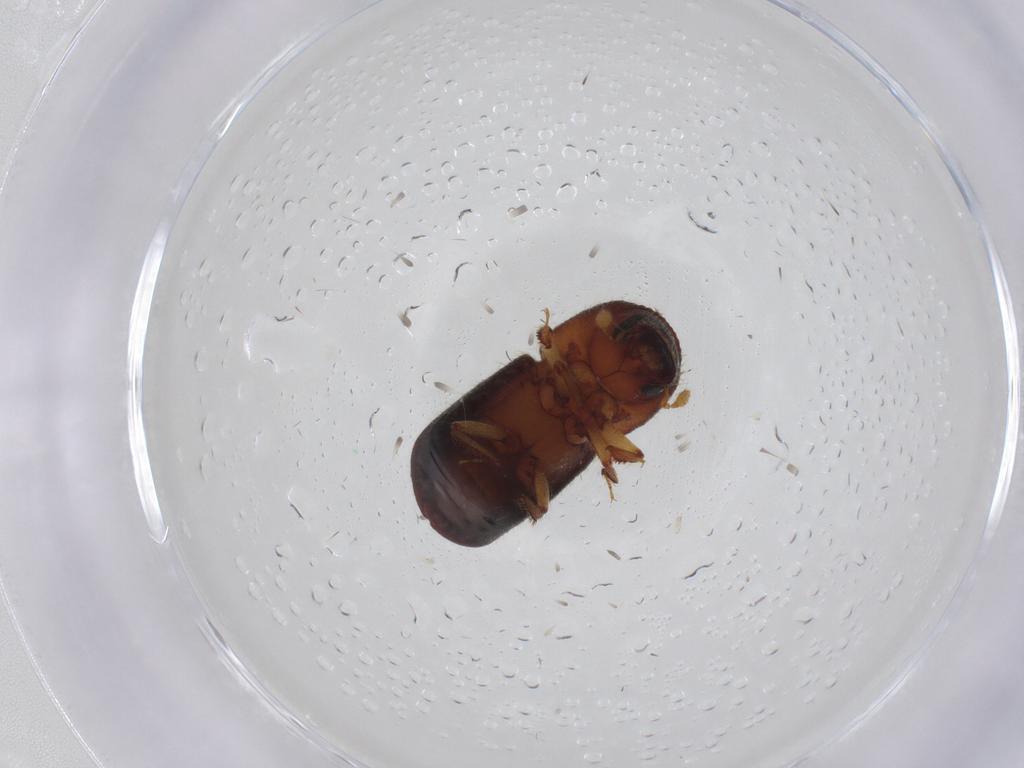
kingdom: Animalia
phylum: Arthropoda
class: Insecta
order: Coleoptera
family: Curculionidae
